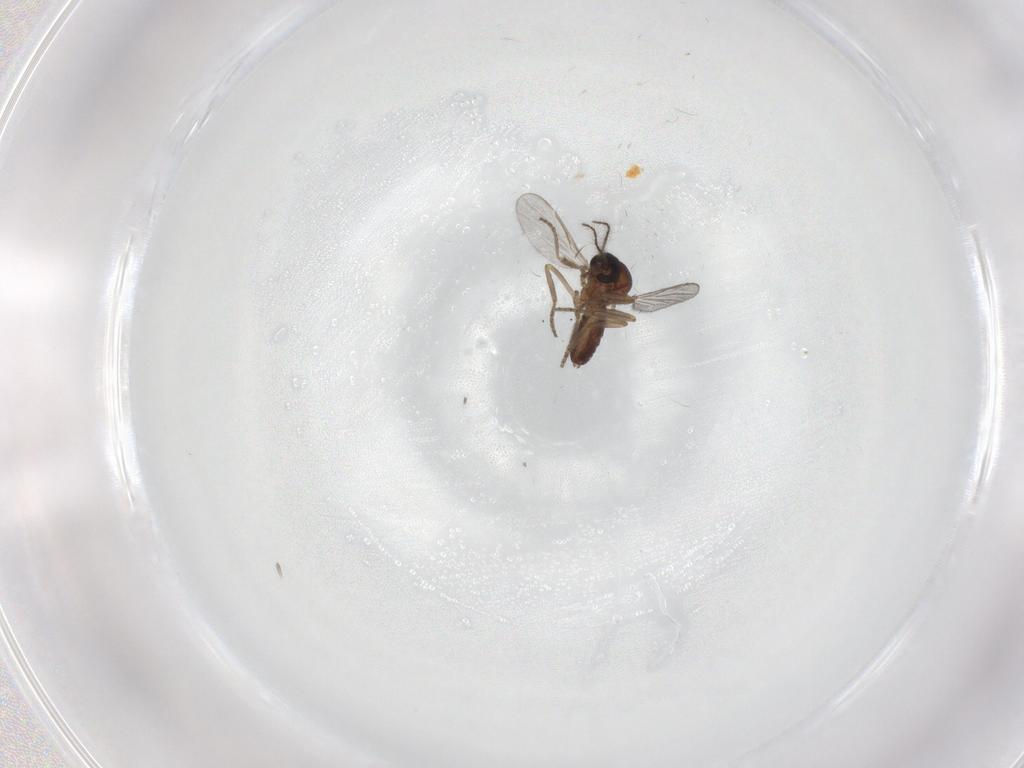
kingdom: Animalia
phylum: Arthropoda
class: Insecta
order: Diptera
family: Ceratopogonidae
